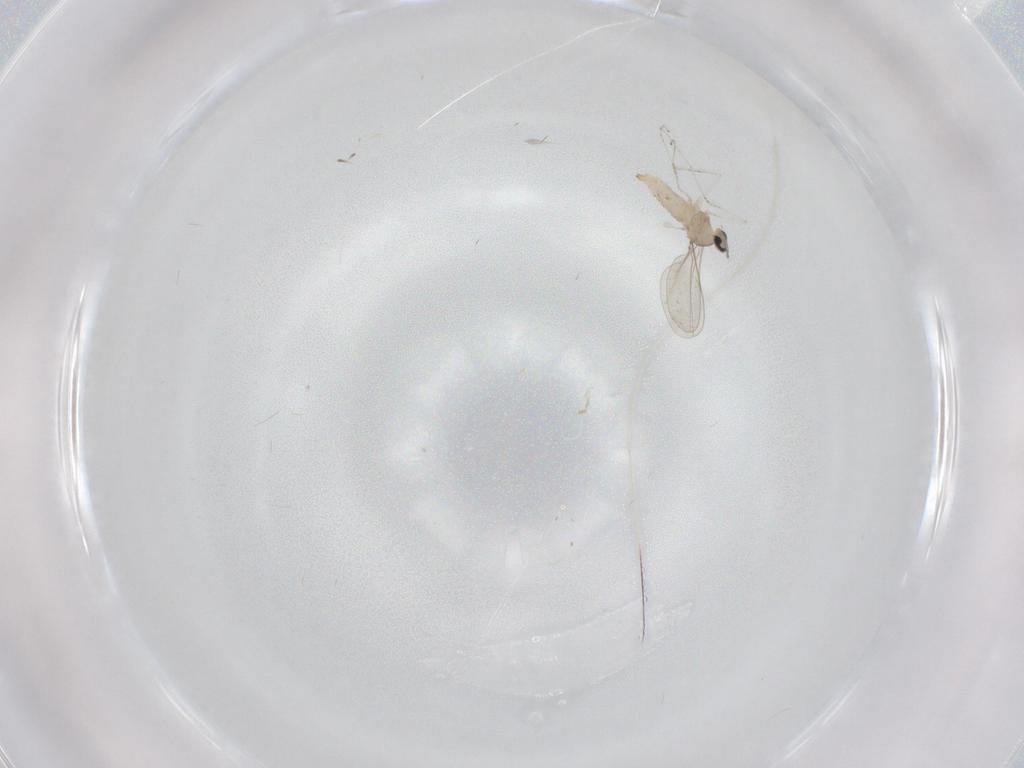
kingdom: Animalia
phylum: Arthropoda
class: Insecta
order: Diptera
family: Cecidomyiidae
